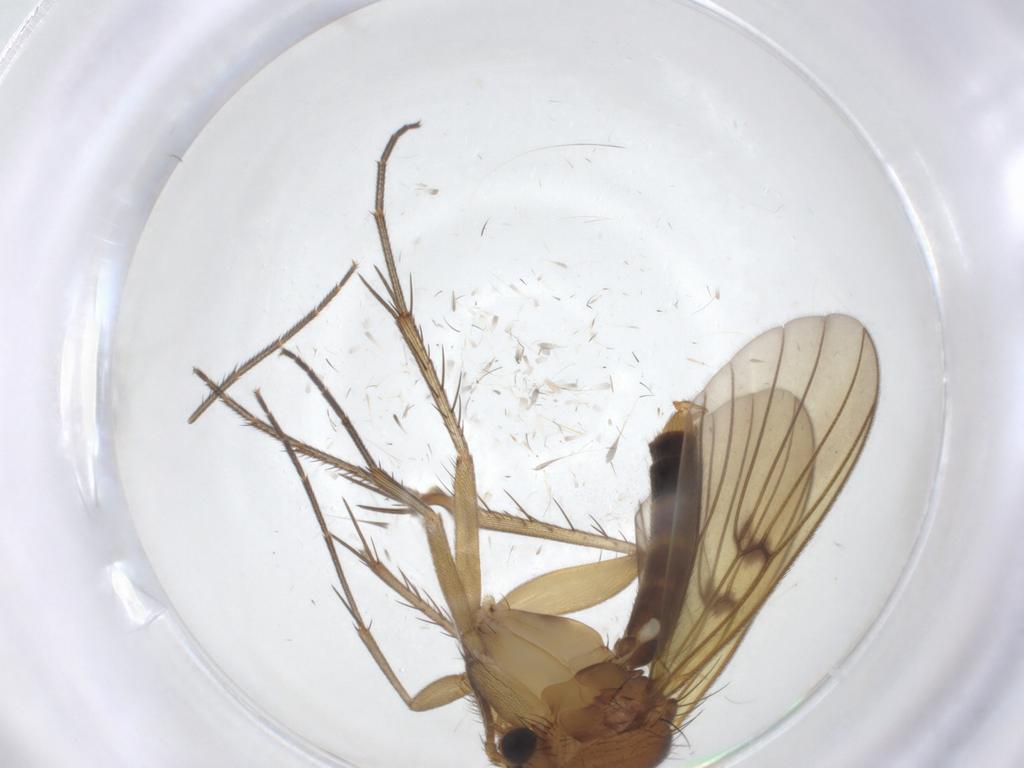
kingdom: Animalia
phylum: Arthropoda
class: Insecta
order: Diptera
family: Mycetophilidae
